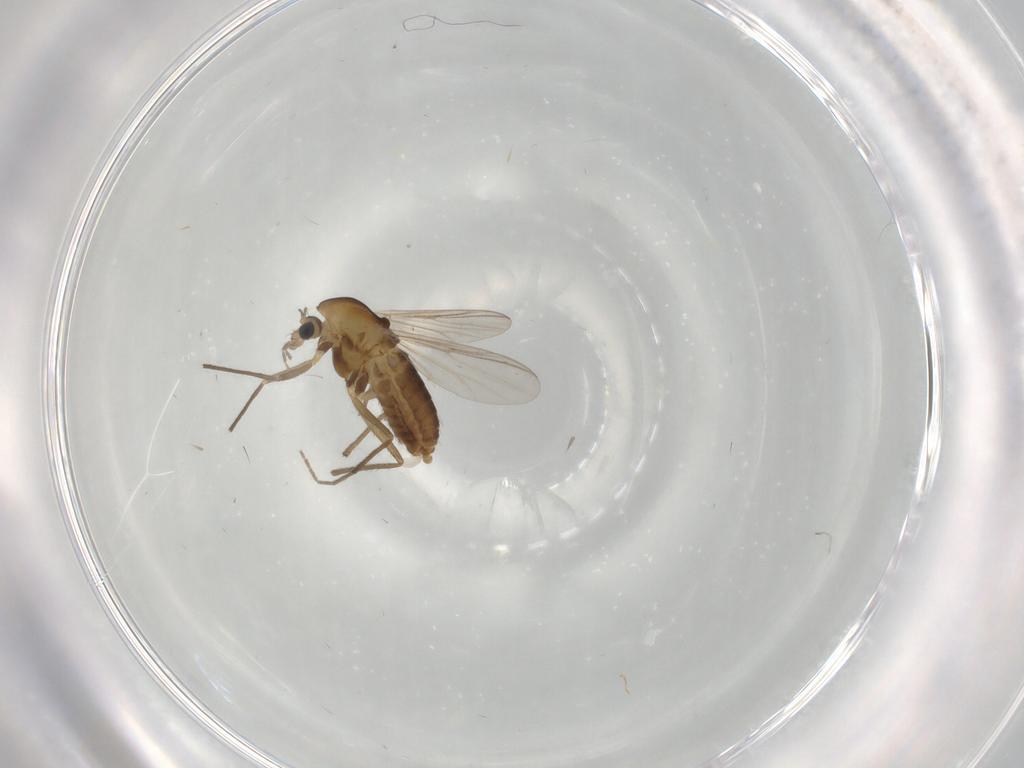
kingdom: Animalia
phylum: Arthropoda
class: Insecta
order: Diptera
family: Chironomidae
